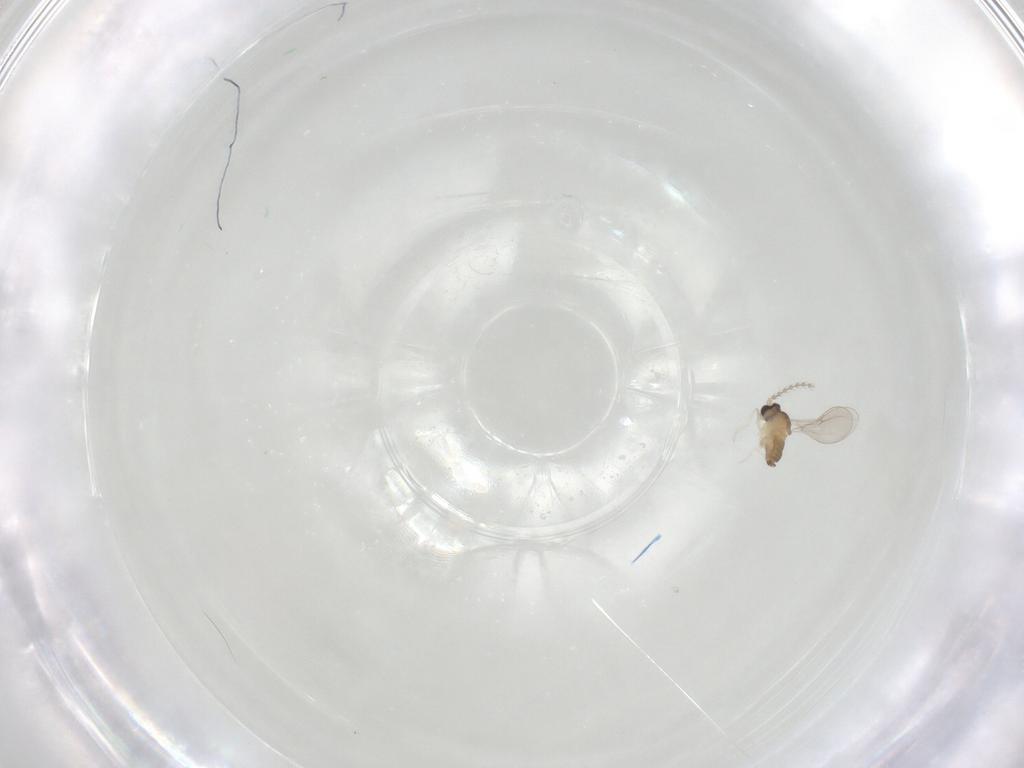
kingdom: Animalia
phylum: Arthropoda
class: Insecta
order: Diptera
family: Cecidomyiidae
